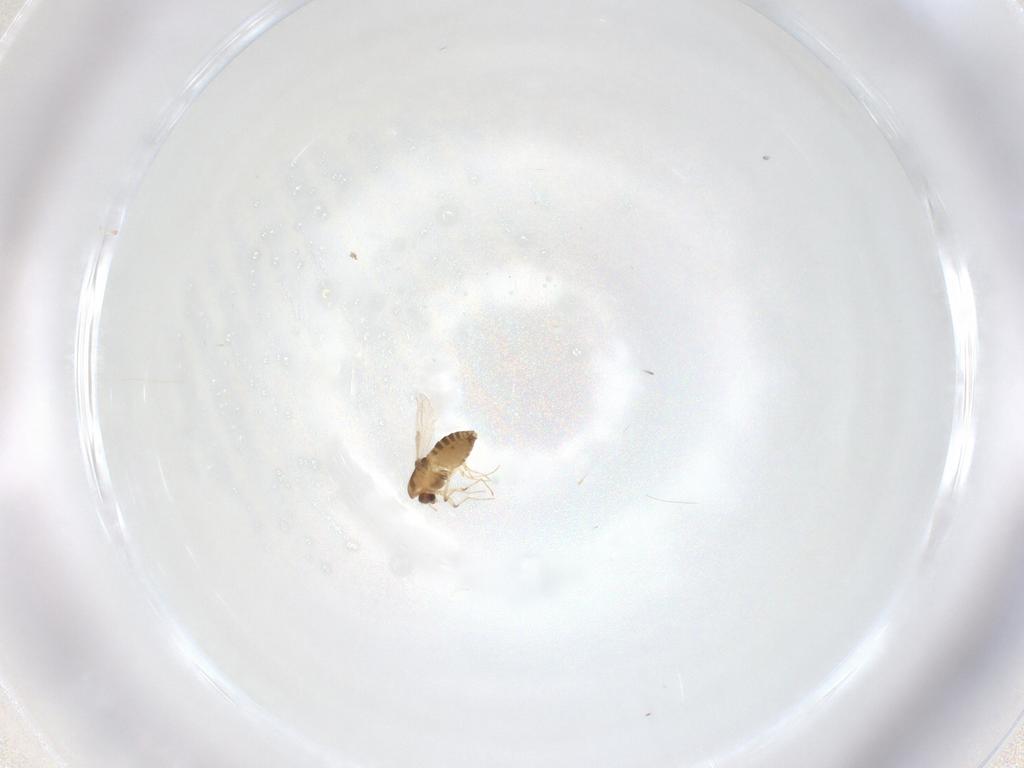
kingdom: Animalia
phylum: Arthropoda
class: Insecta
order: Diptera
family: Chironomidae
